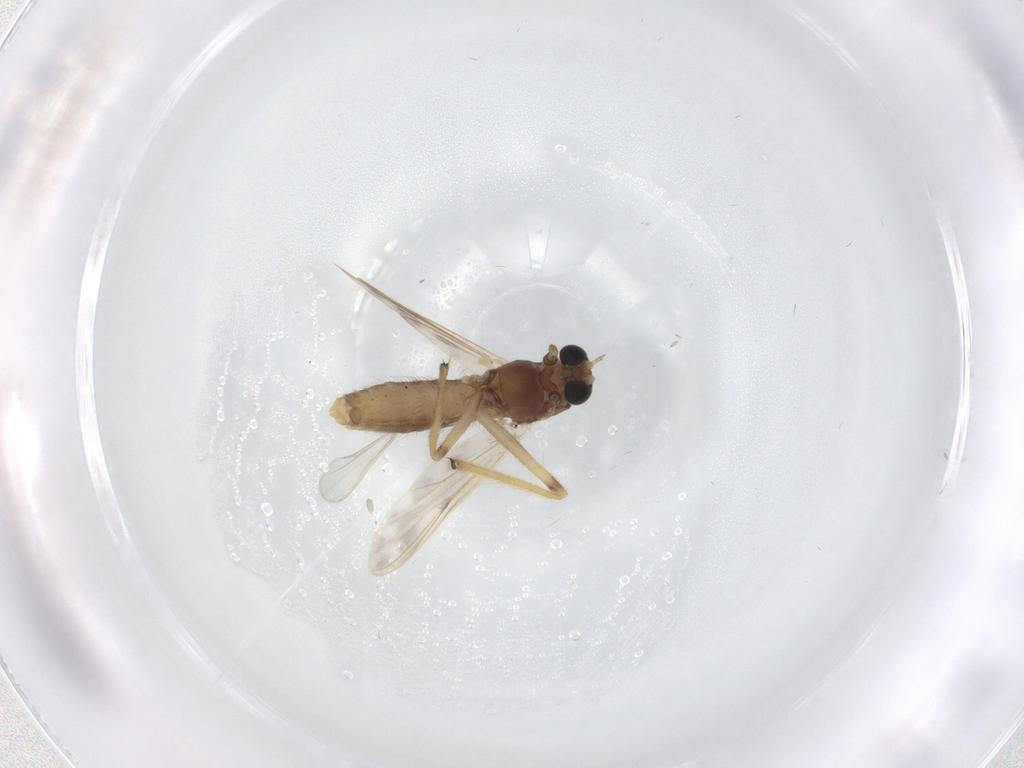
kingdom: Animalia
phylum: Arthropoda
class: Insecta
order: Diptera
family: Chironomidae
